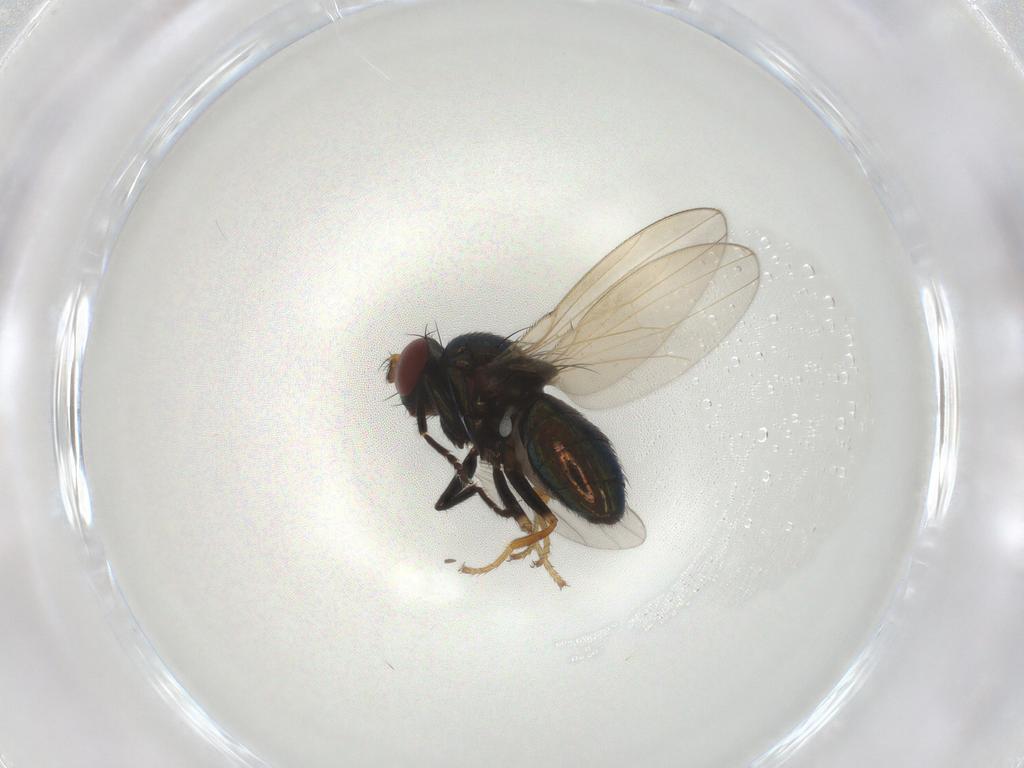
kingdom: Animalia
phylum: Arthropoda
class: Insecta
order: Diptera
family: Ephydridae
